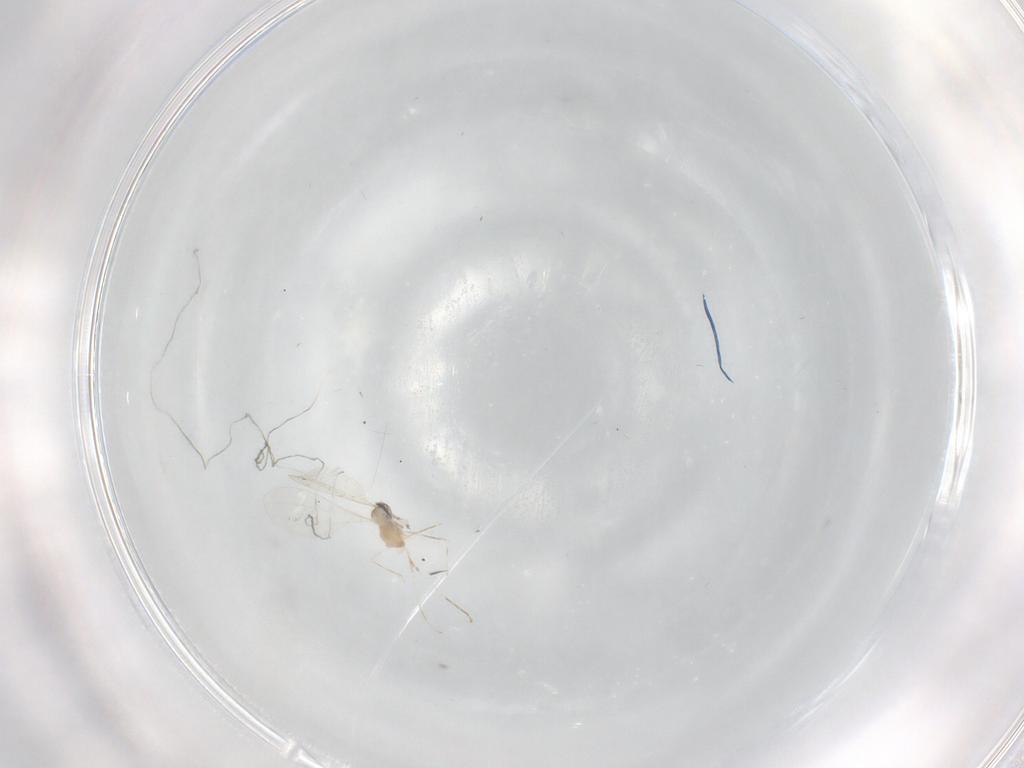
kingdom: Animalia
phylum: Arthropoda
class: Insecta
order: Diptera
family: Cecidomyiidae
